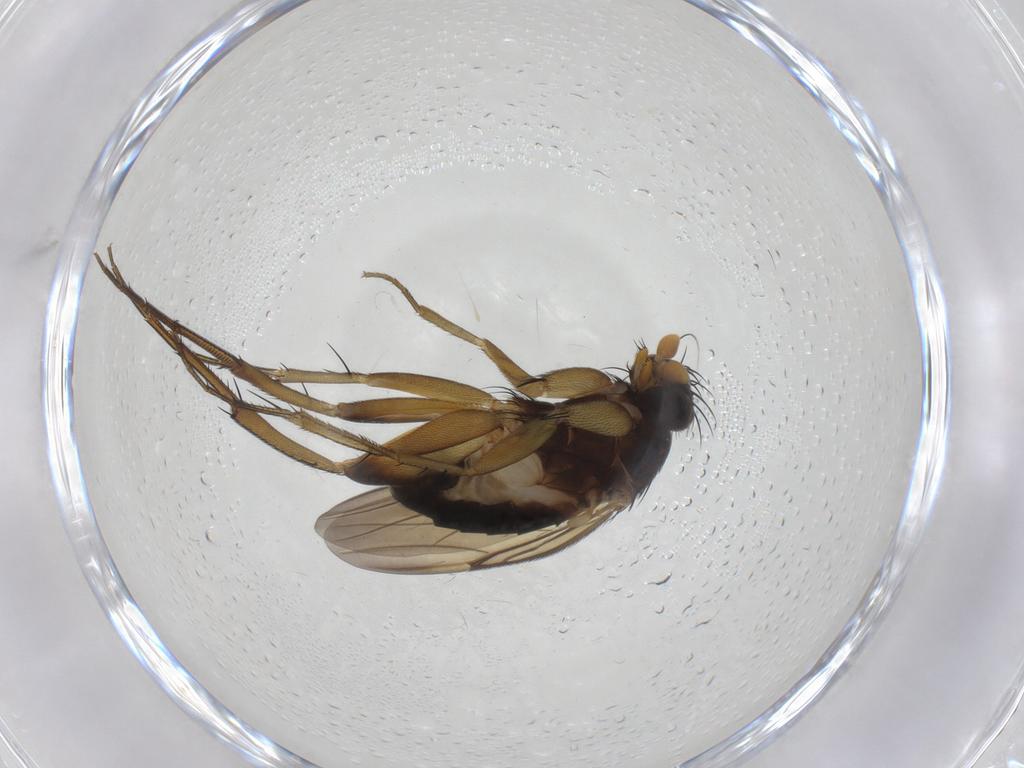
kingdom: Animalia
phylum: Arthropoda
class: Insecta
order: Diptera
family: Phoridae
